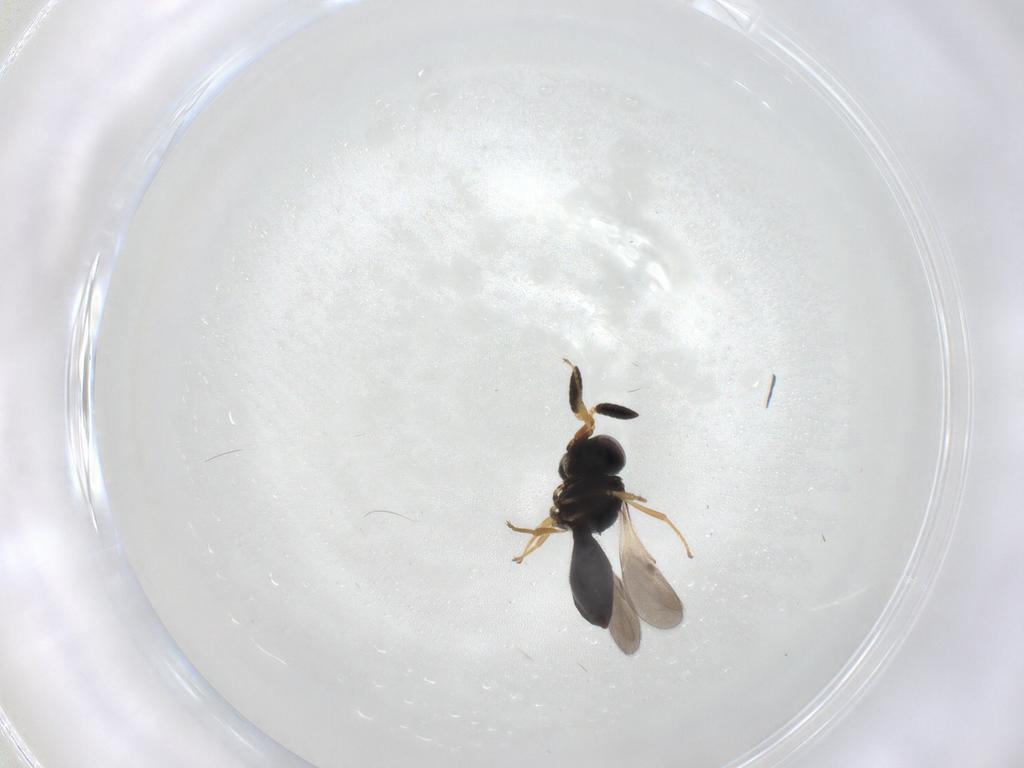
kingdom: Animalia
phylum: Arthropoda
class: Insecta
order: Hymenoptera
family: Scelionidae
